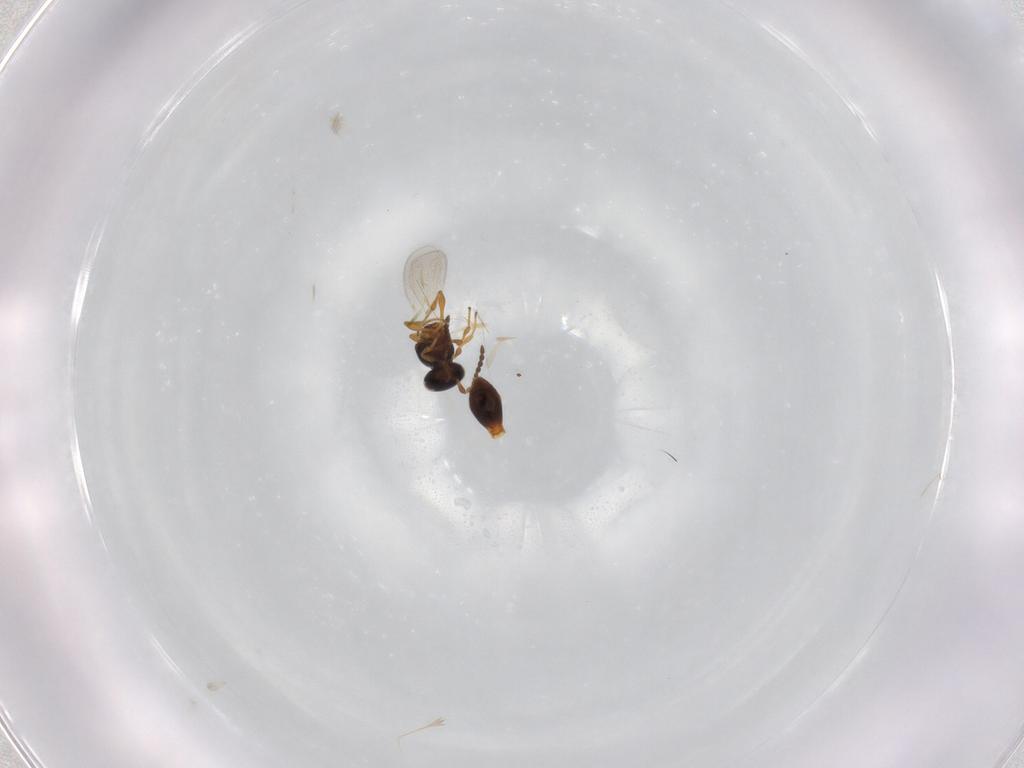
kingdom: Animalia
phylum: Arthropoda
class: Insecta
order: Hymenoptera
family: Platygastridae
